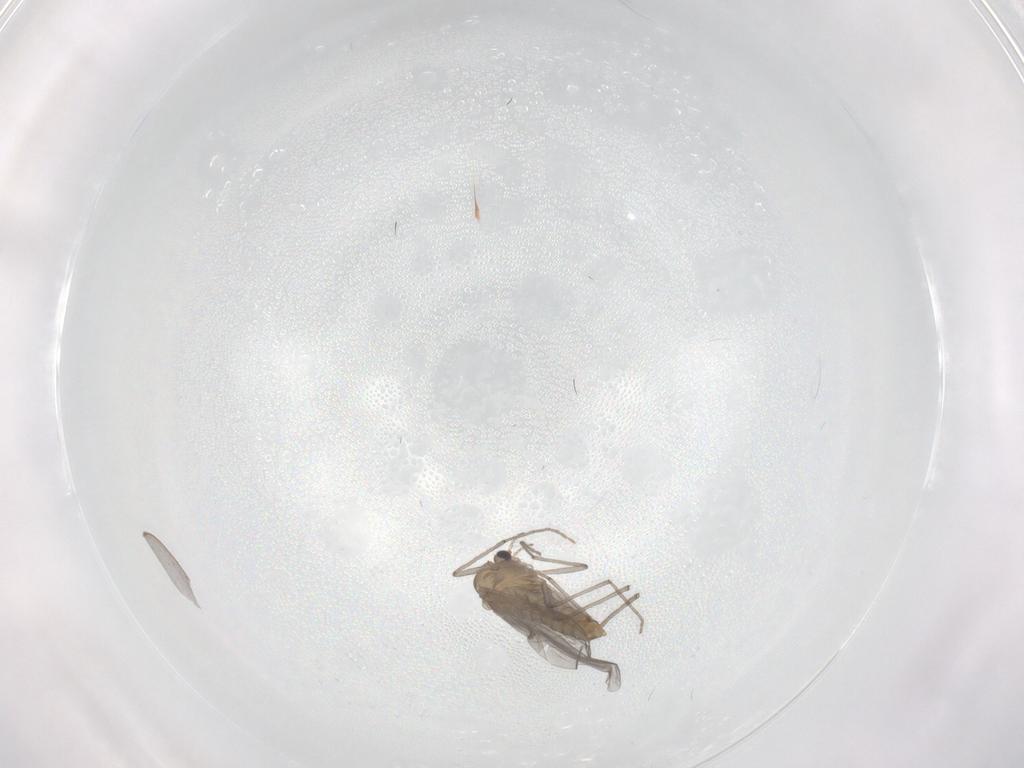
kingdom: Animalia
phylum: Arthropoda
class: Insecta
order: Diptera
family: Chironomidae
